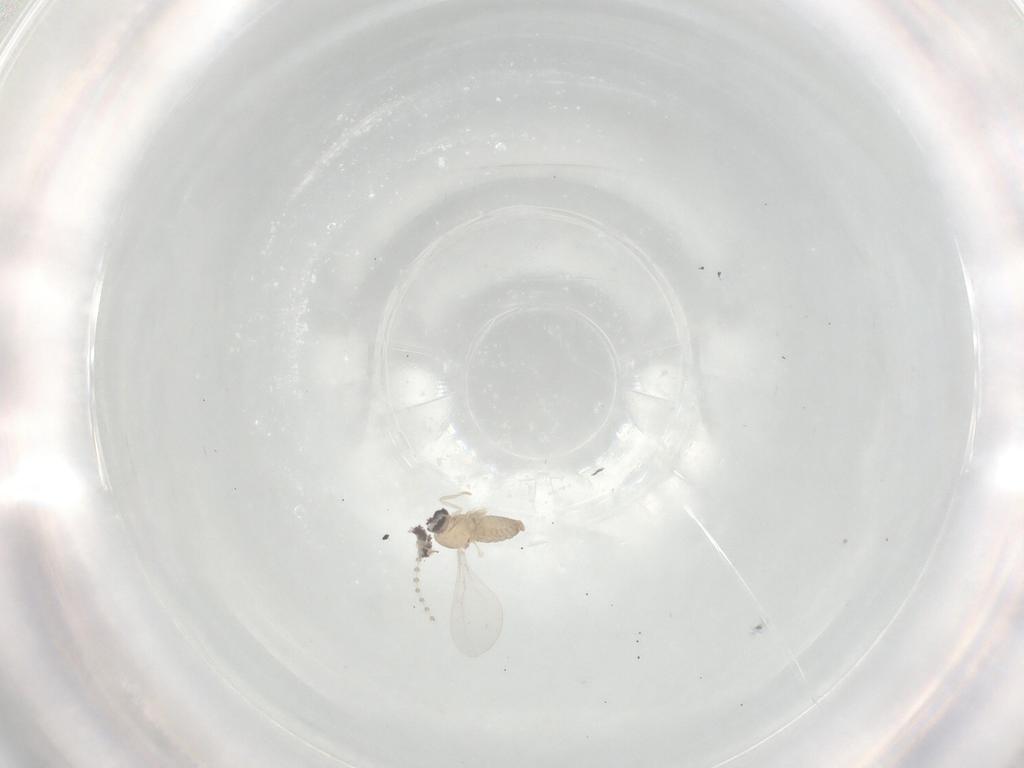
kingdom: Animalia
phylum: Arthropoda
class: Insecta
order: Diptera
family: Cecidomyiidae
